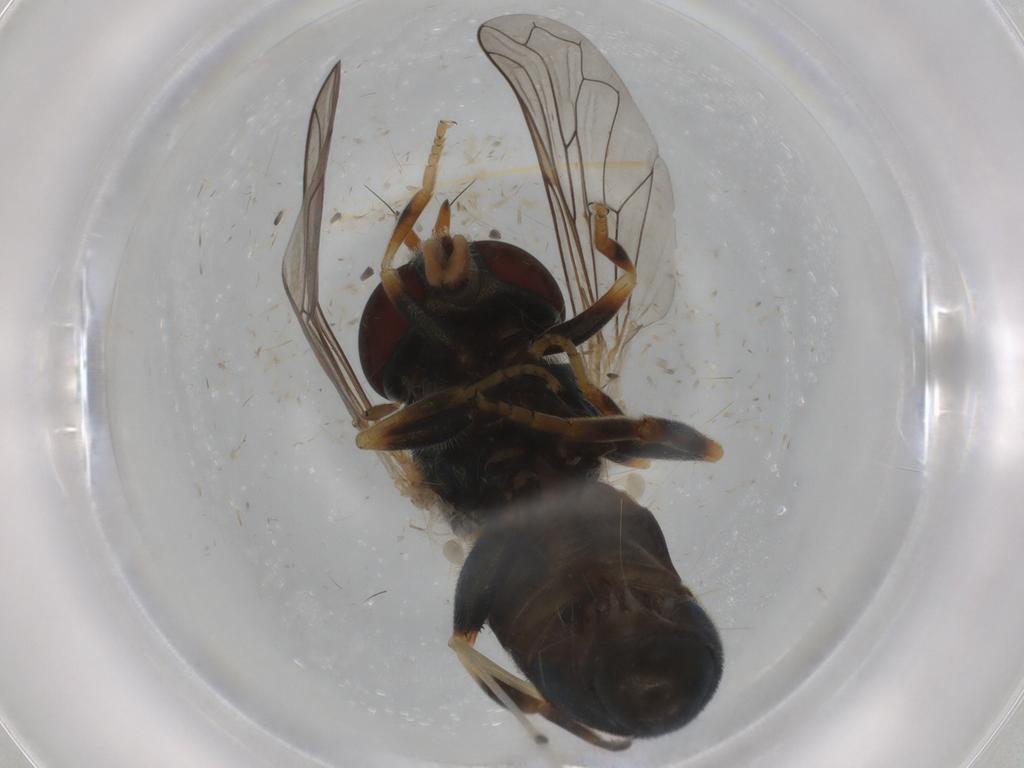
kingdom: Animalia
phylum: Arthropoda
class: Insecta
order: Diptera
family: Syrphidae
